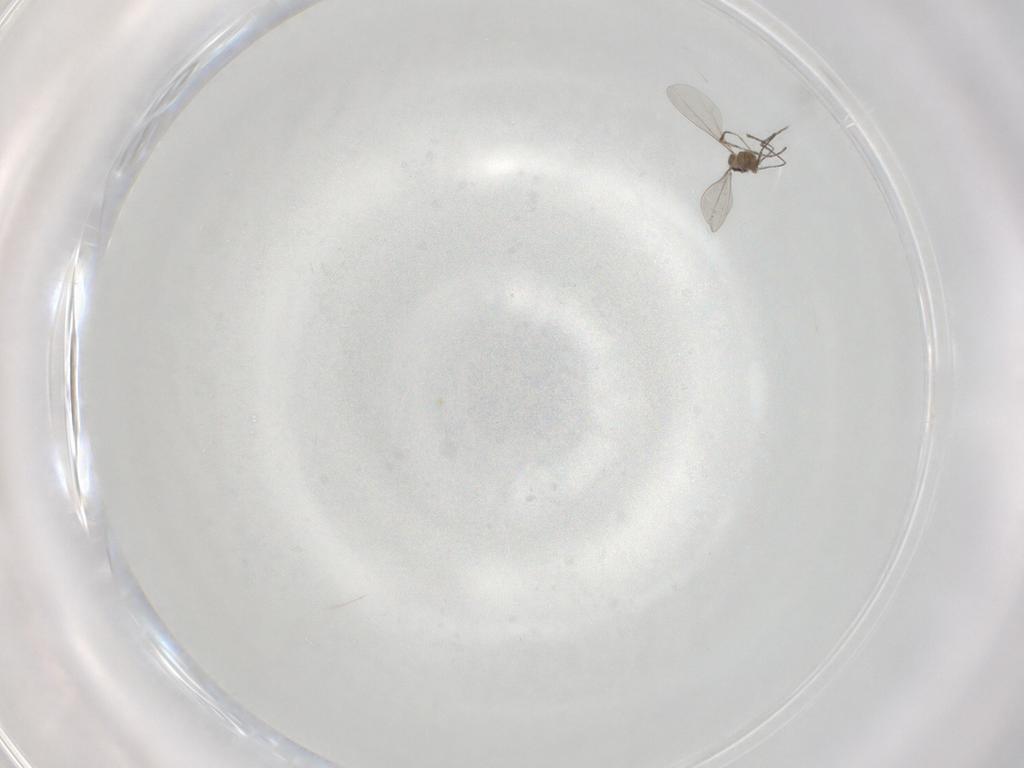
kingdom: Animalia
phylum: Arthropoda
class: Insecta
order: Diptera
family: Cecidomyiidae
